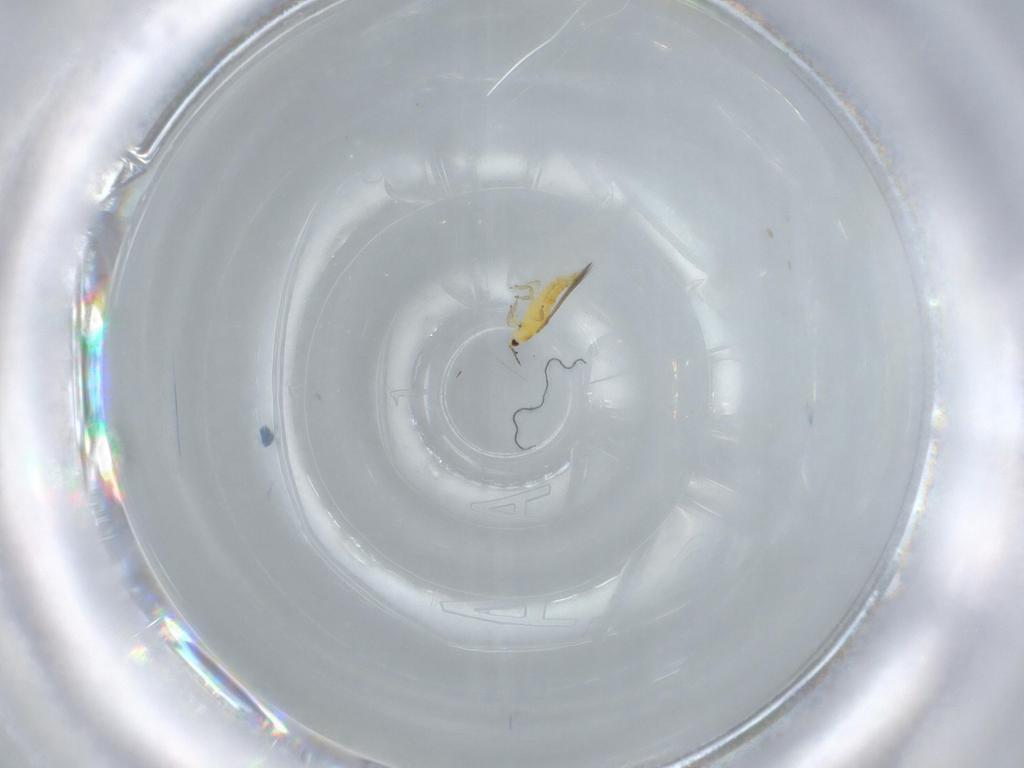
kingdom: Animalia
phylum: Arthropoda
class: Insecta
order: Thysanoptera
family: Thripidae
